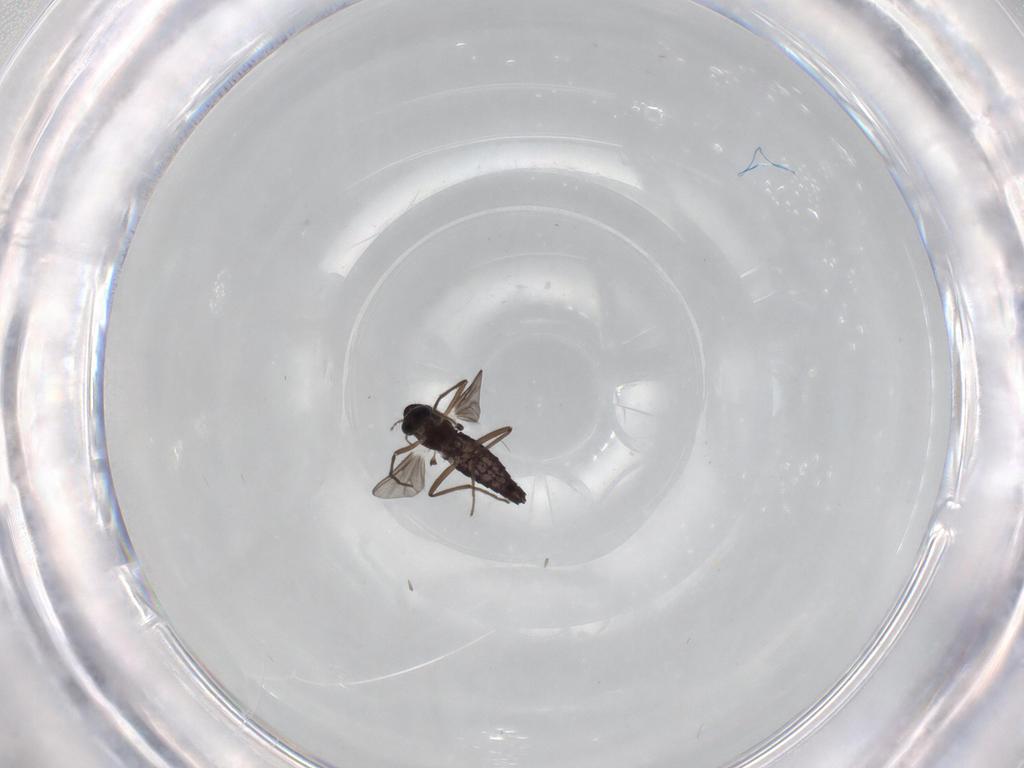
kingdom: Animalia
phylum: Arthropoda
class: Insecta
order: Diptera
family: Chironomidae
